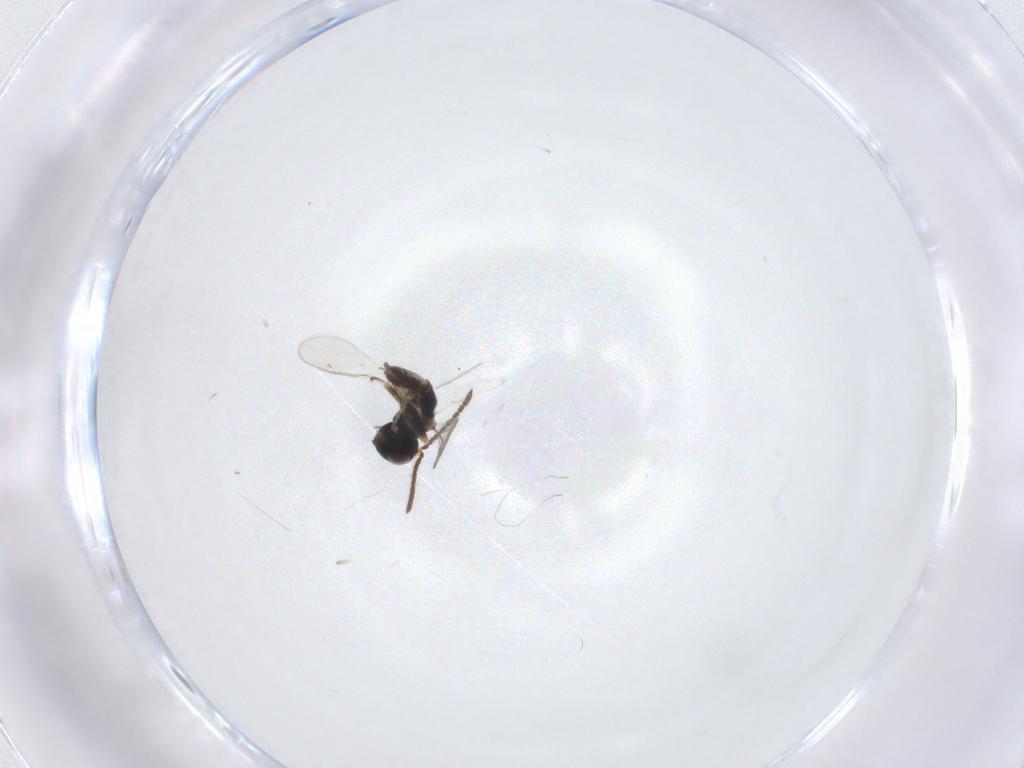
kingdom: Animalia
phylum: Arthropoda
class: Insecta
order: Hymenoptera
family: Pteromalidae
